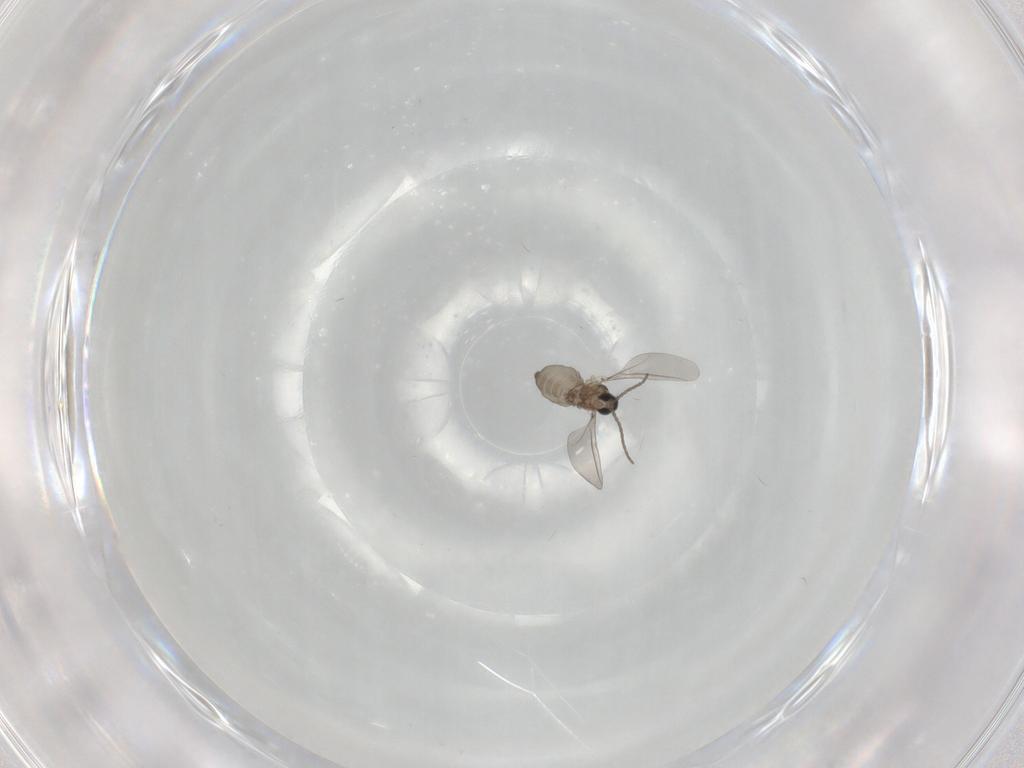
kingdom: Animalia
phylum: Arthropoda
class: Insecta
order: Diptera
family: Cecidomyiidae
